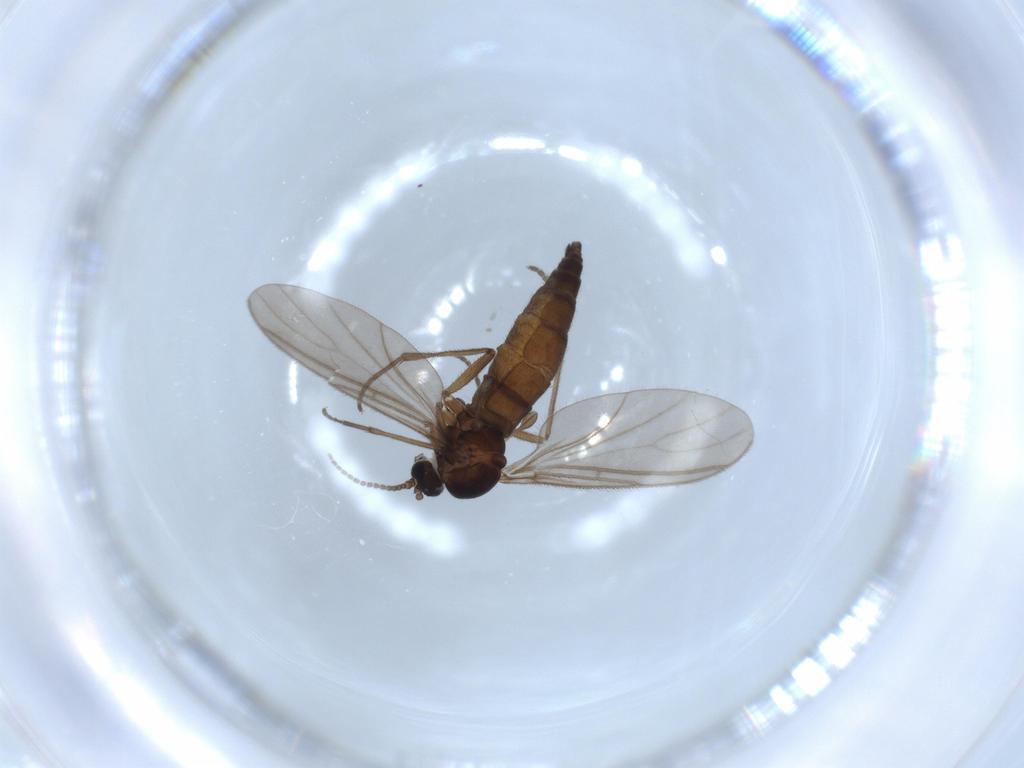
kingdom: Animalia
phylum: Arthropoda
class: Insecta
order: Diptera
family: Sciaridae
